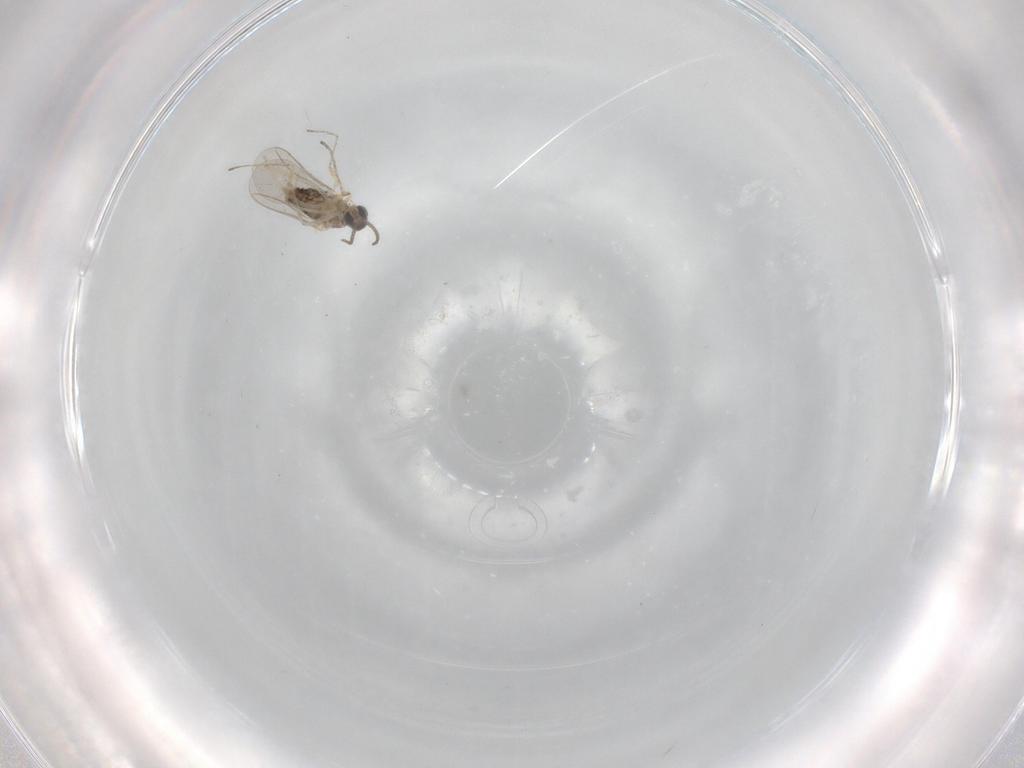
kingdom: Animalia
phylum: Arthropoda
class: Insecta
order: Diptera
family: Cecidomyiidae
